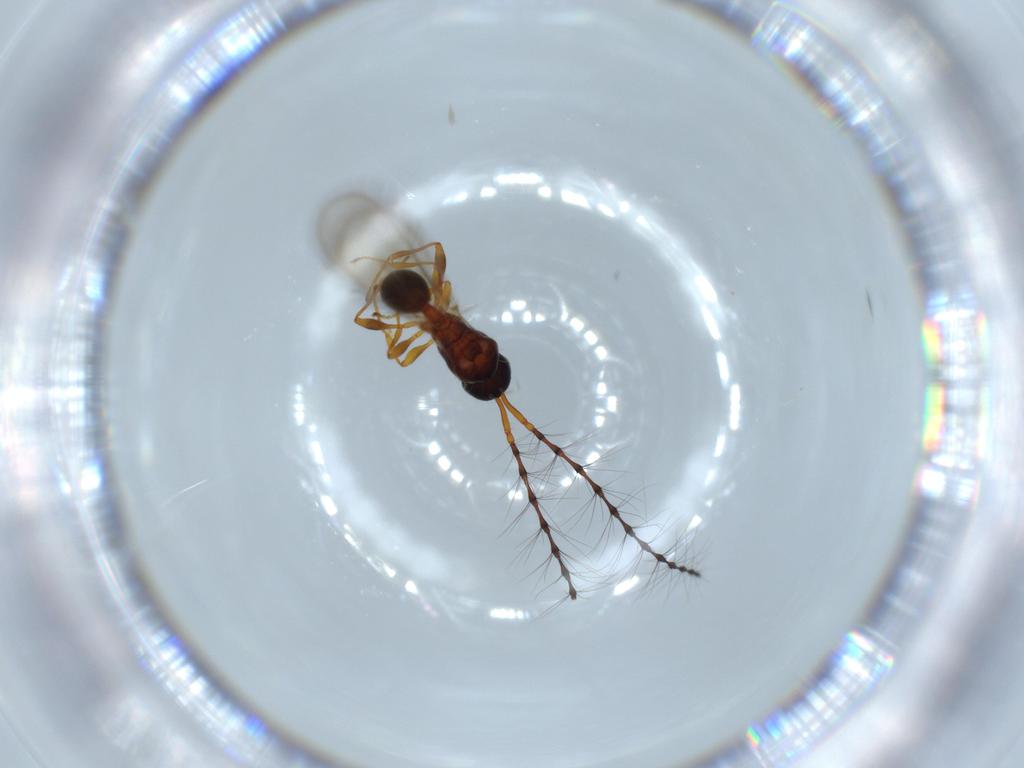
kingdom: Animalia
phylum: Arthropoda
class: Insecta
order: Hymenoptera
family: Diapriidae
